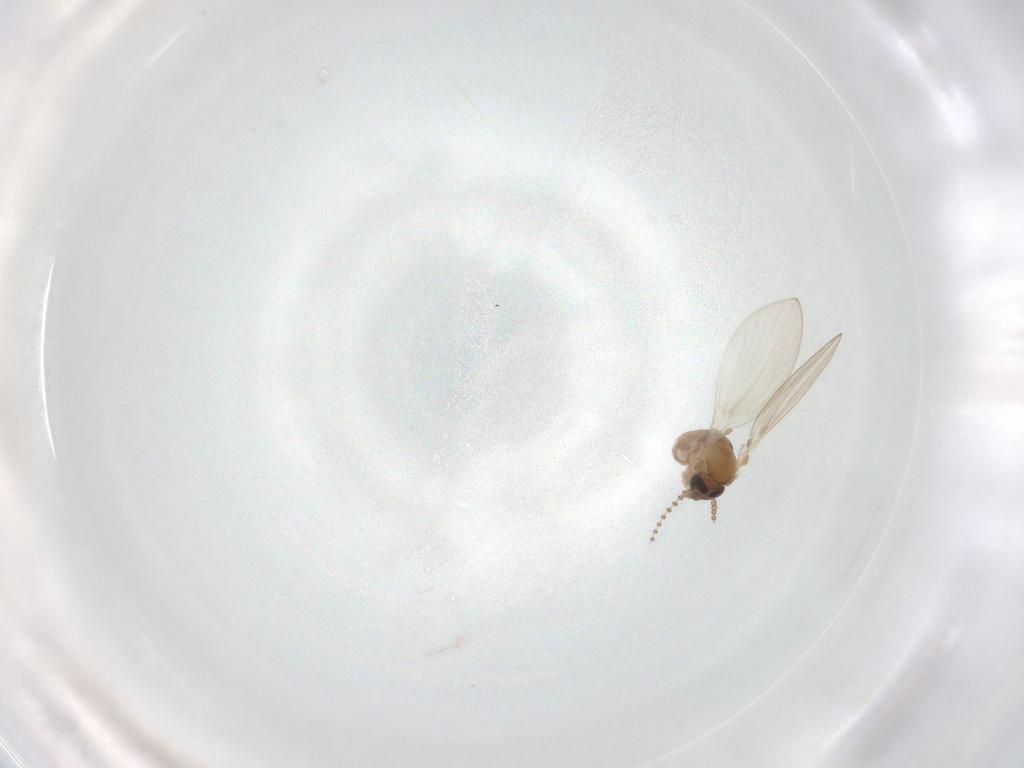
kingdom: Animalia
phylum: Arthropoda
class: Insecta
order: Diptera
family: Psychodidae
